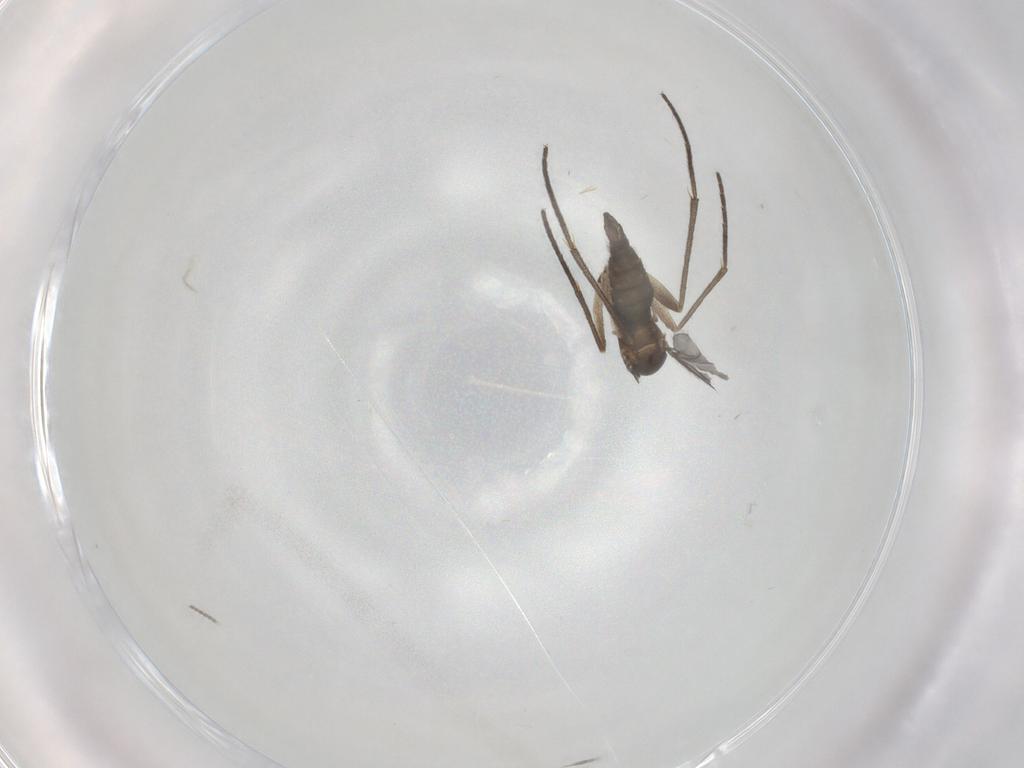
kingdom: Animalia
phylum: Arthropoda
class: Insecta
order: Diptera
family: Sciaridae
